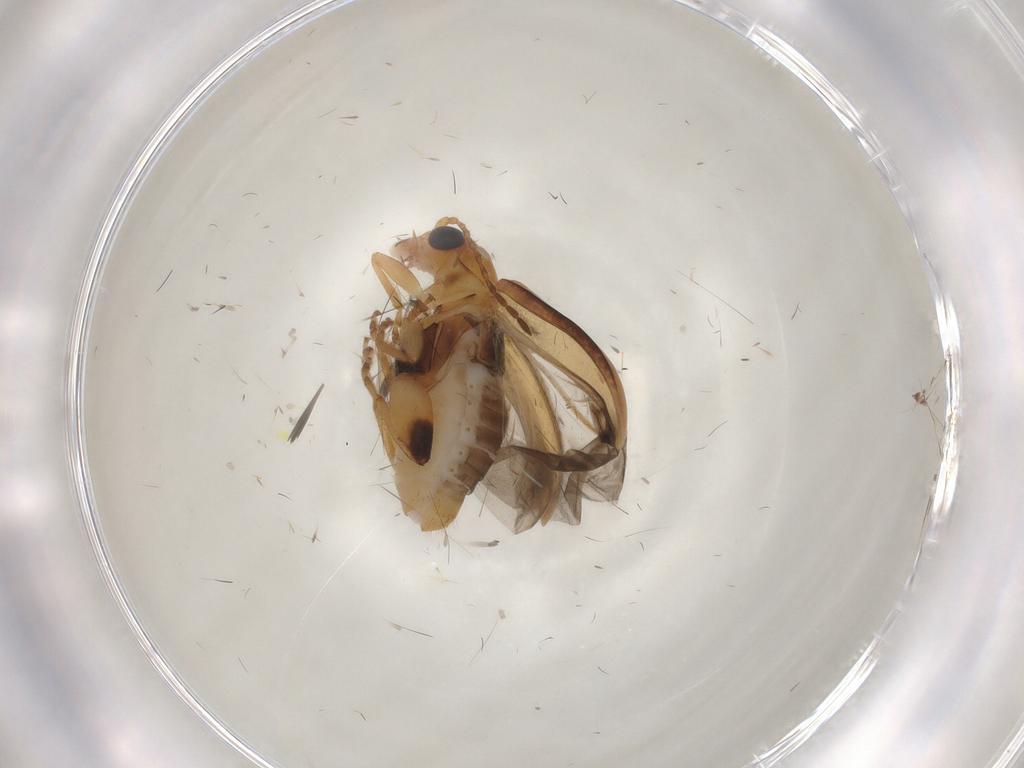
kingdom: Animalia
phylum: Arthropoda
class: Insecta
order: Coleoptera
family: Chrysomelidae
